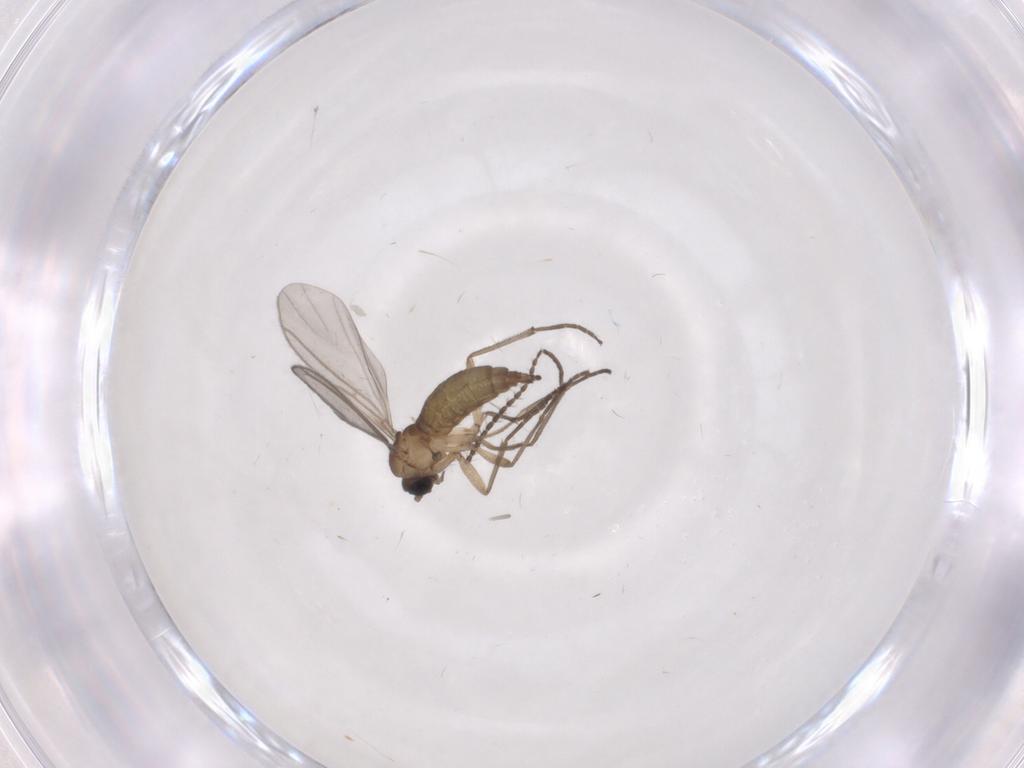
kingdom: Animalia
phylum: Arthropoda
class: Insecta
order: Diptera
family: Sciaridae
